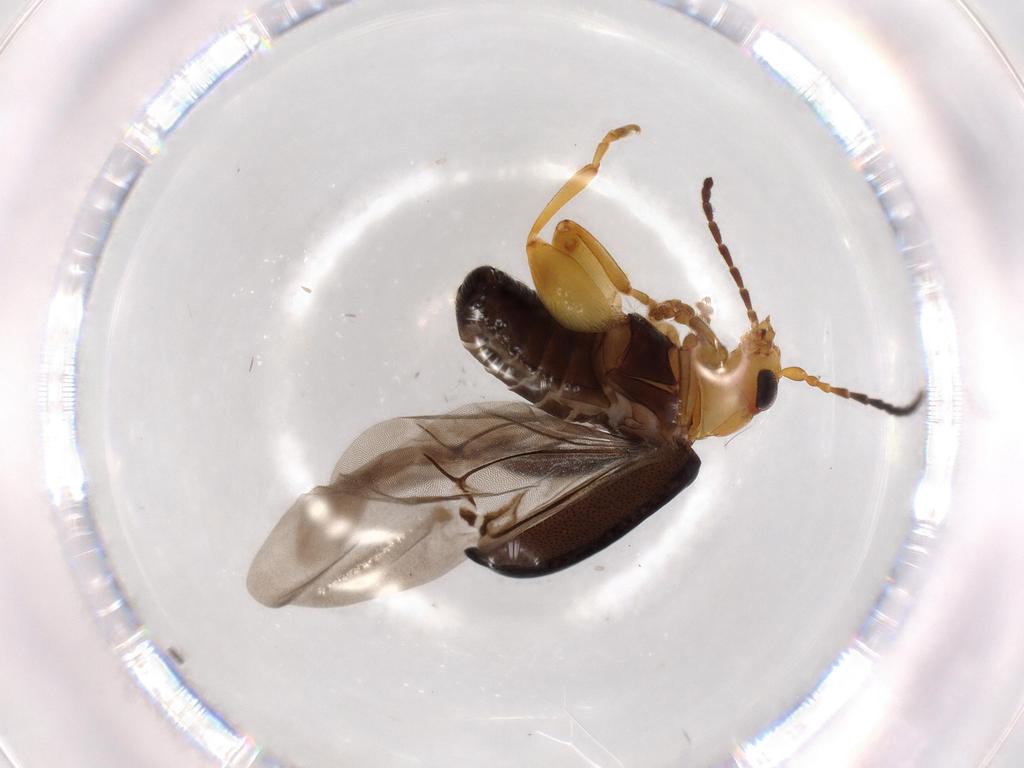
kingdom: Animalia
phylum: Arthropoda
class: Insecta
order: Coleoptera
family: Chrysomelidae
